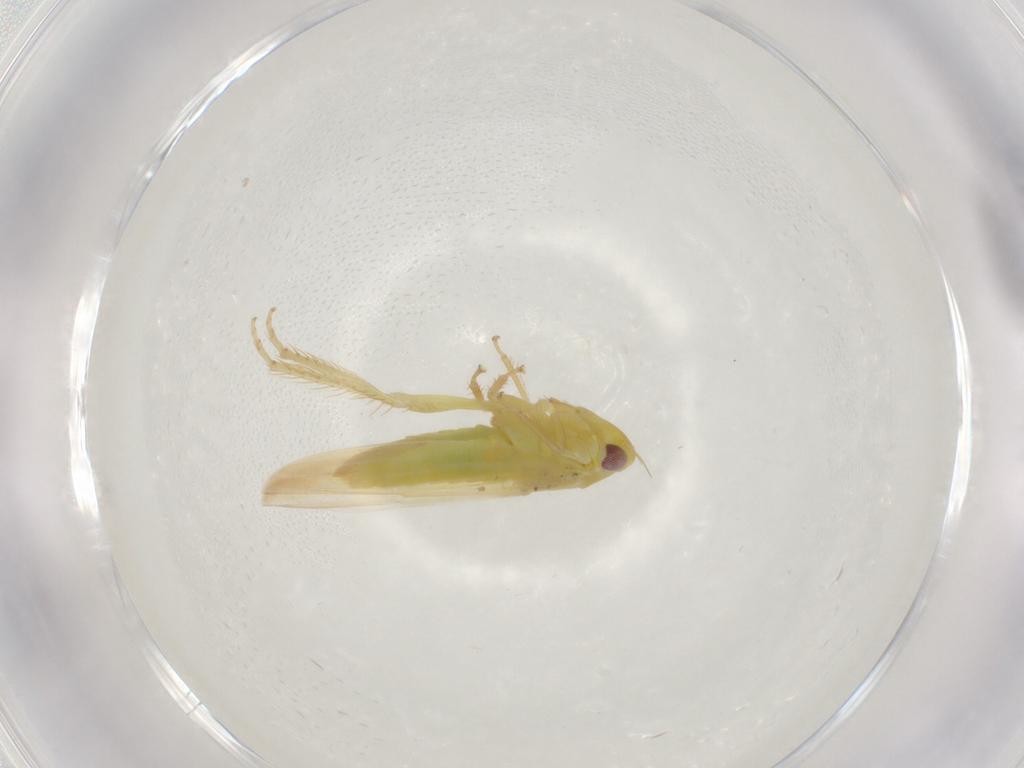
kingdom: Animalia
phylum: Arthropoda
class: Insecta
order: Hemiptera
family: Cicadellidae
